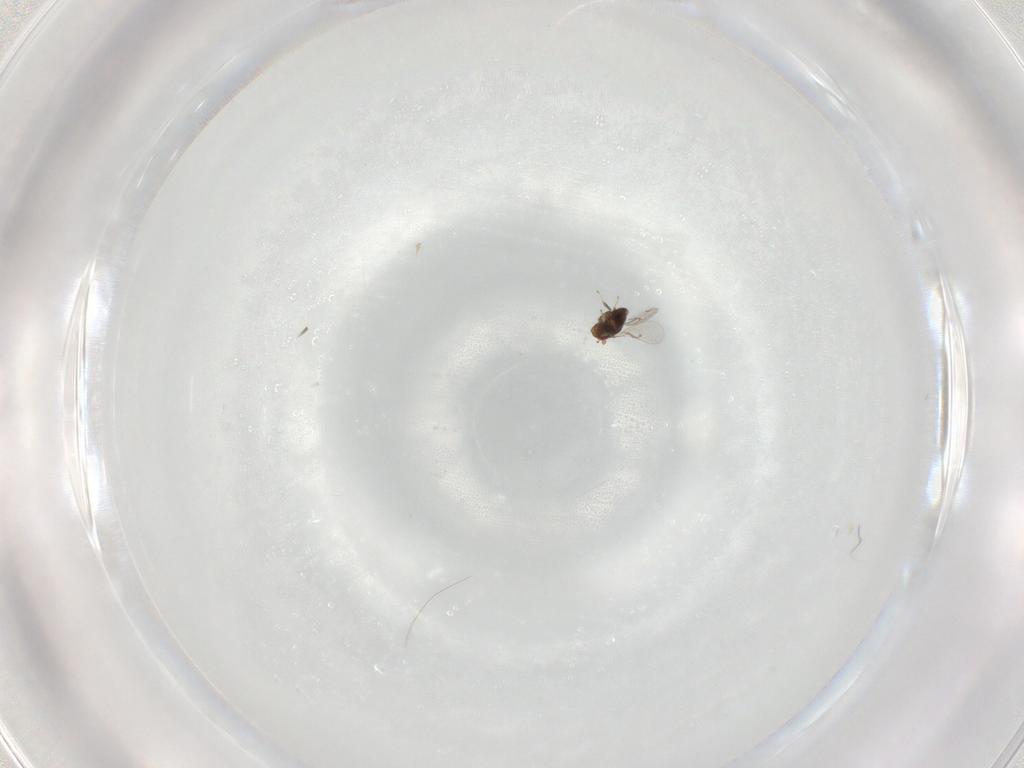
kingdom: Animalia
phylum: Arthropoda
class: Insecta
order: Hymenoptera
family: Trichogrammatidae
